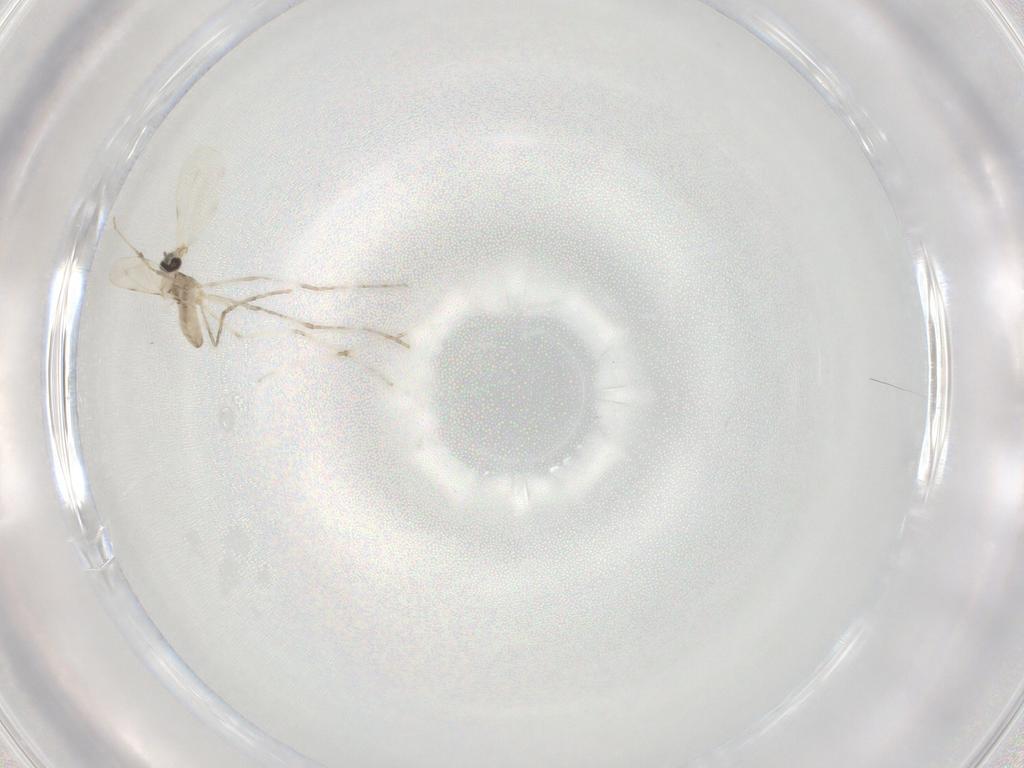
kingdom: Animalia
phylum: Arthropoda
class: Insecta
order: Diptera
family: Cecidomyiidae
